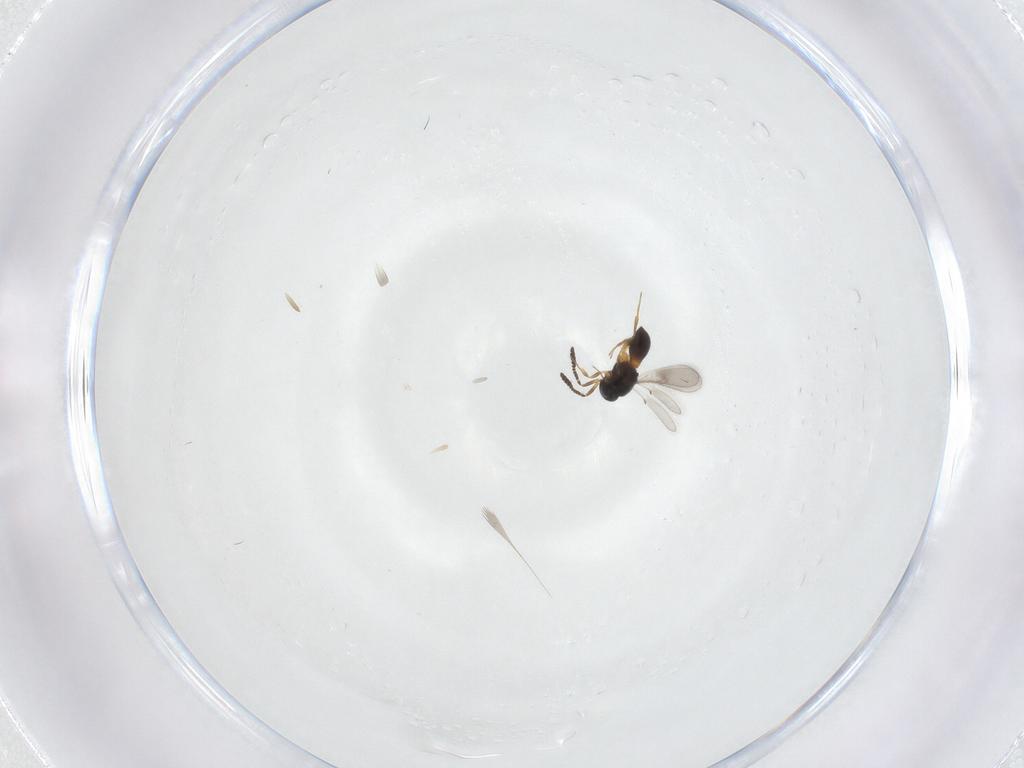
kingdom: Animalia
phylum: Arthropoda
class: Insecta
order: Hymenoptera
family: Scelionidae
